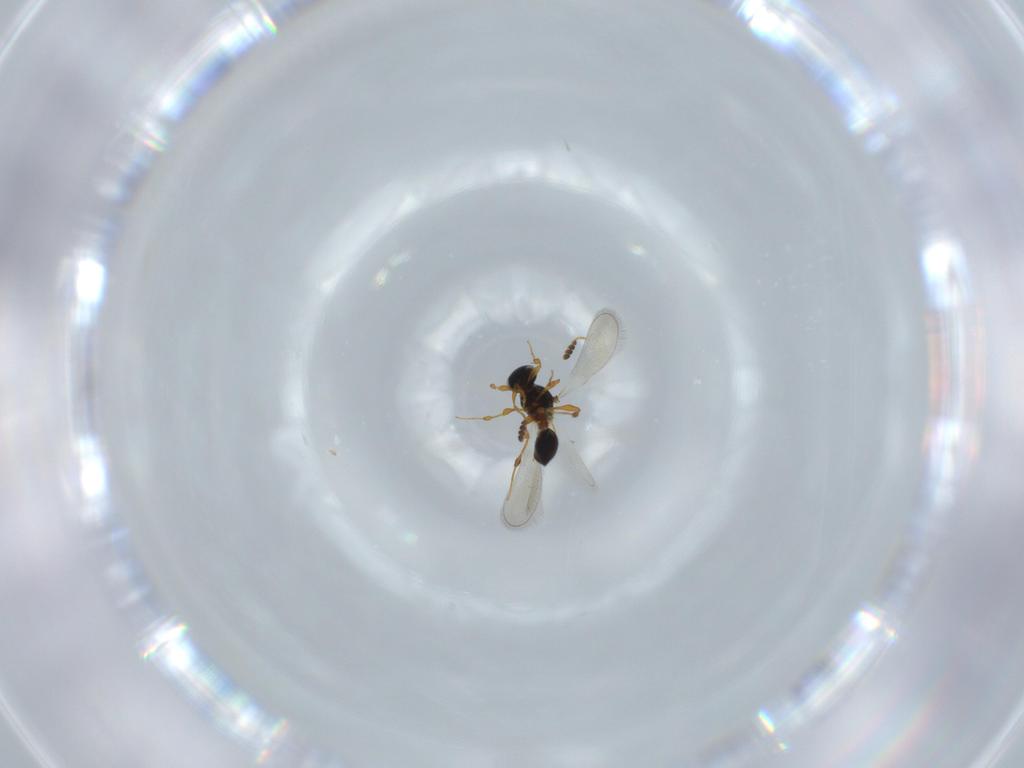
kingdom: Animalia
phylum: Arthropoda
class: Insecta
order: Hymenoptera
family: Platygastridae
